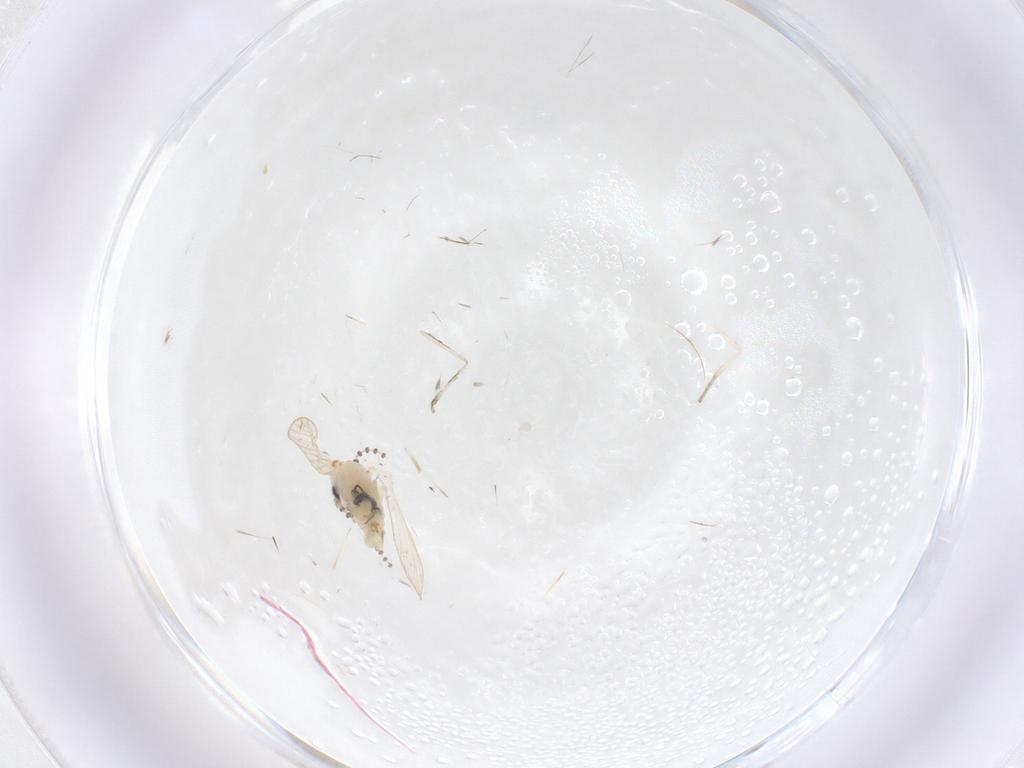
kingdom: Animalia
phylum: Arthropoda
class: Insecta
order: Diptera
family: Psychodidae
